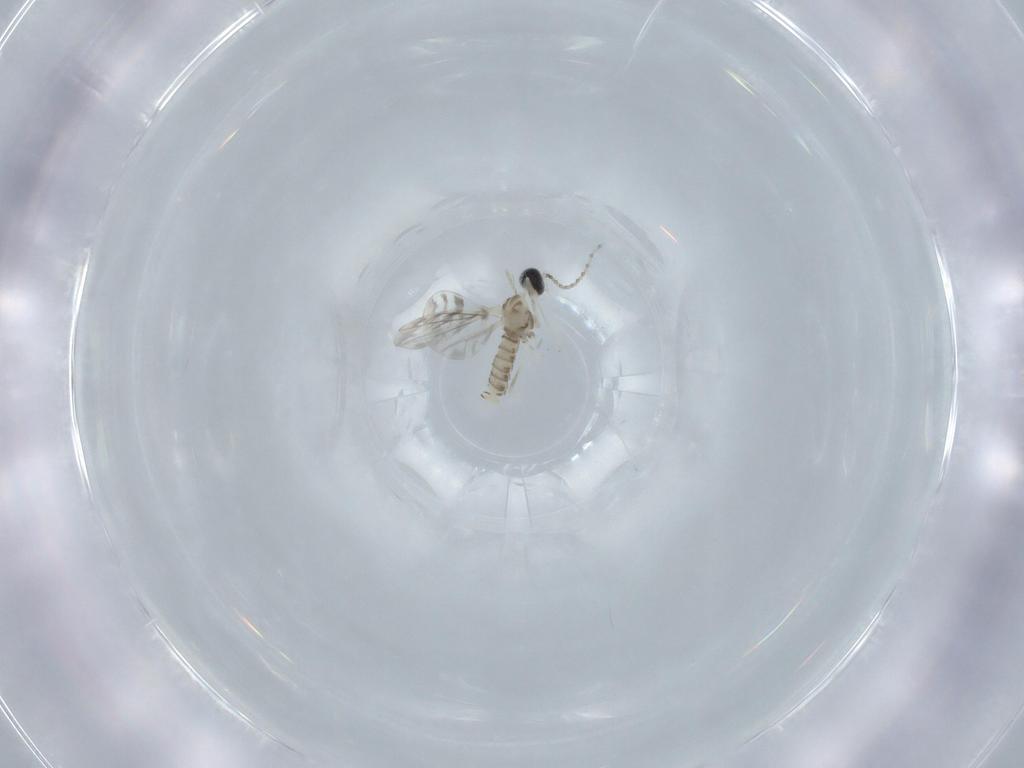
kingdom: Animalia
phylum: Arthropoda
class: Insecta
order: Diptera
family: Cecidomyiidae
